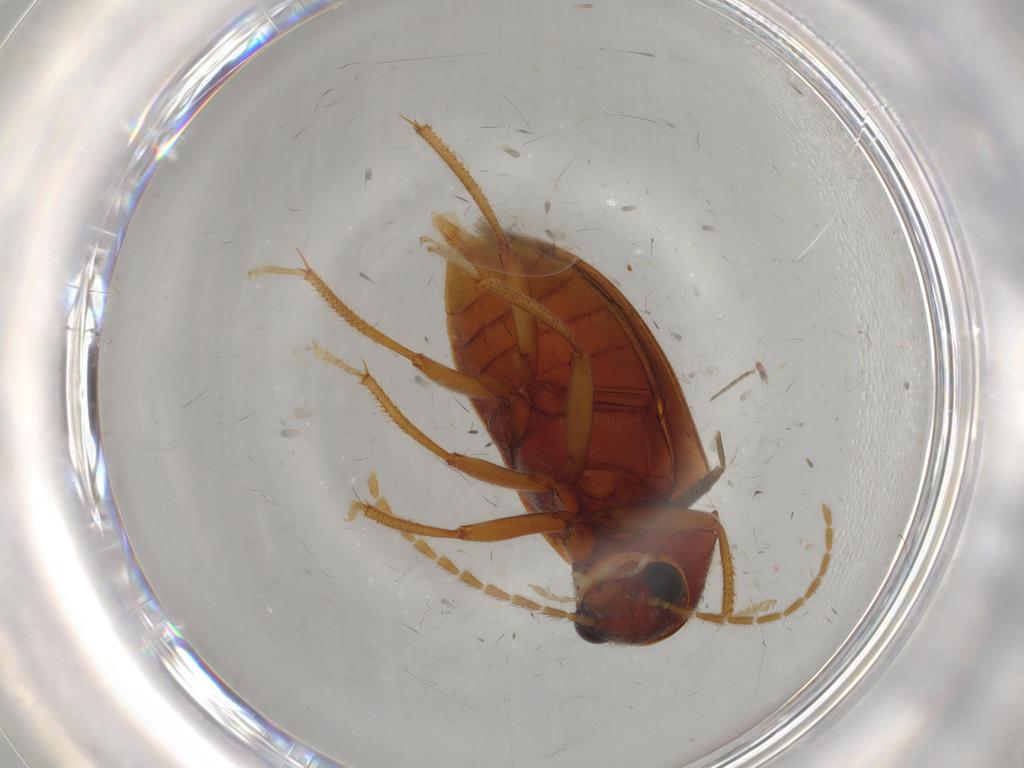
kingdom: Animalia
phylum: Arthropoda
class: Insecta
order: Coleoptera
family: Ptilodactylidae
